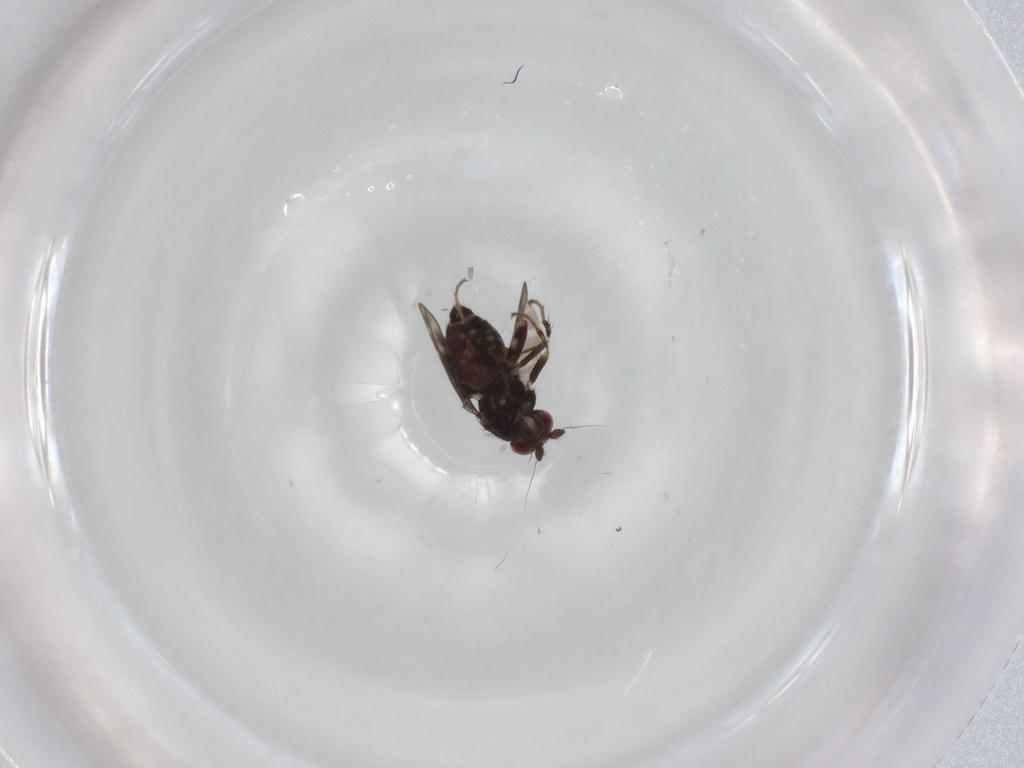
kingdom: Animalia
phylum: Arthropoda
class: Insecta
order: Diptera
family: Sphaeroceridae
